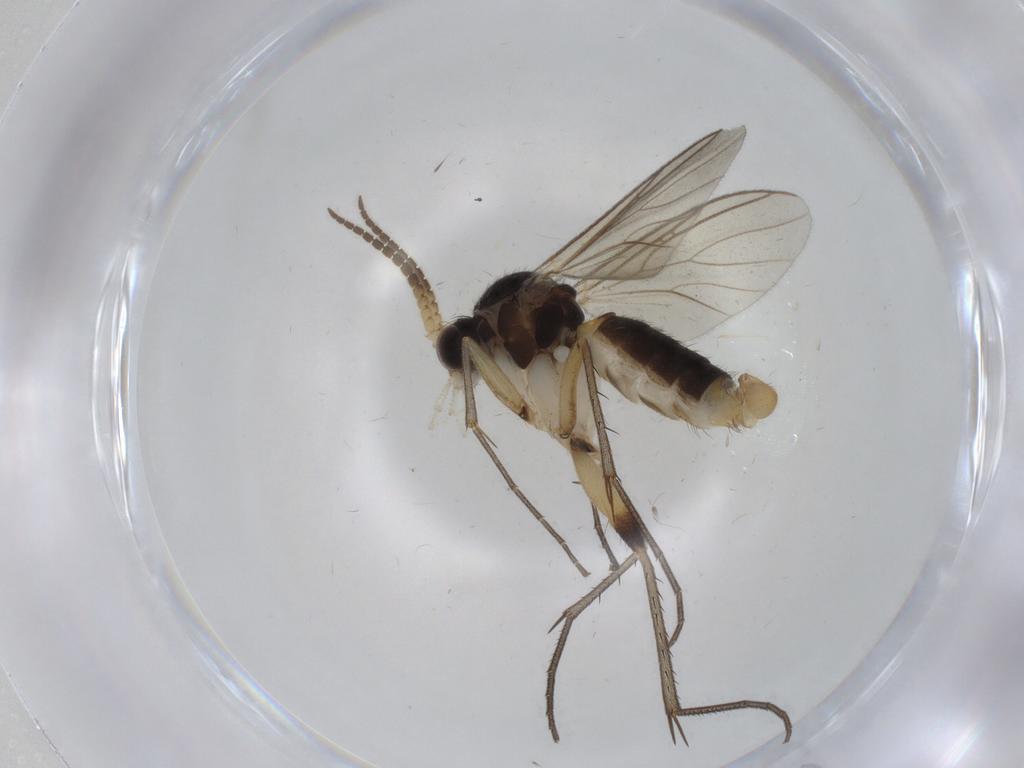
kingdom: Animalia
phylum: Arthropoda
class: Insecta
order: Diptera
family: Mycetophilidae
